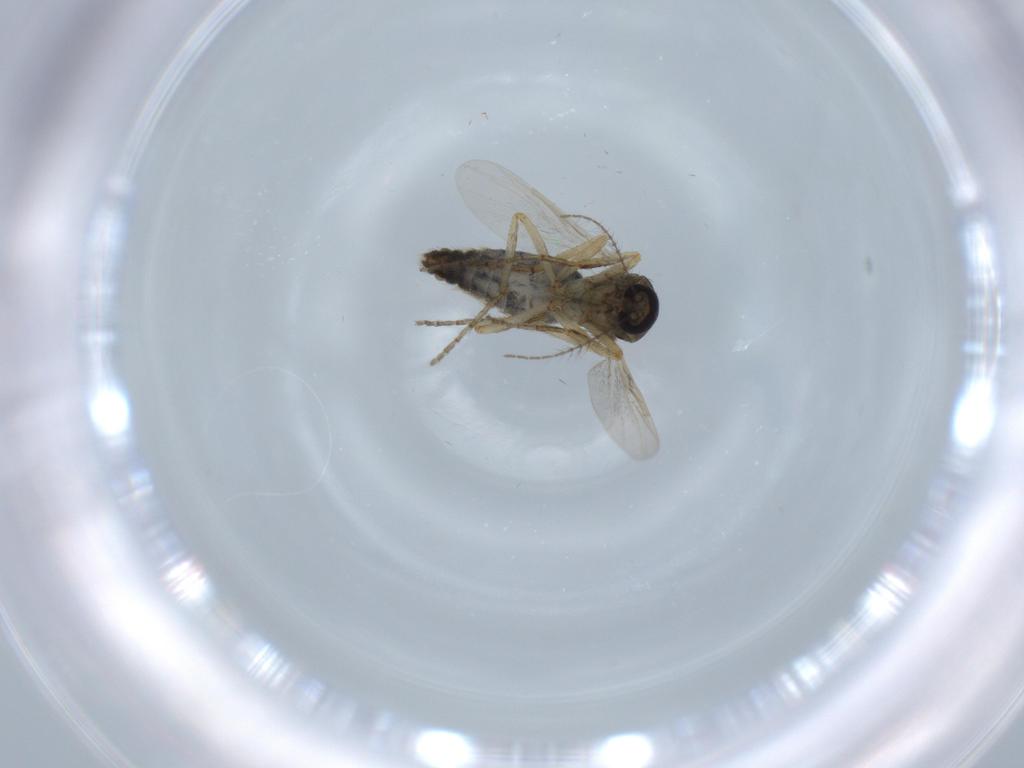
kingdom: Animalia
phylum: Arthropoda
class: Insecta
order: Diptera
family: Ceratopogonidae
